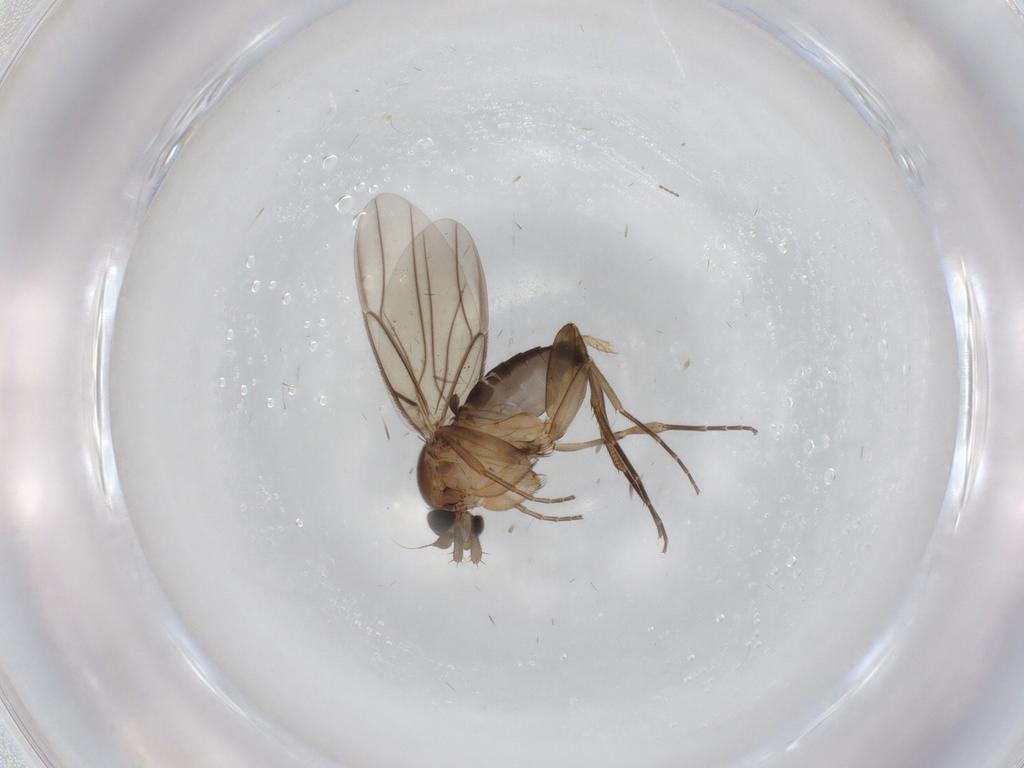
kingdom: Animalia
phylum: Arthropoda
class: Insecta
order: Diptera
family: Phoridae
